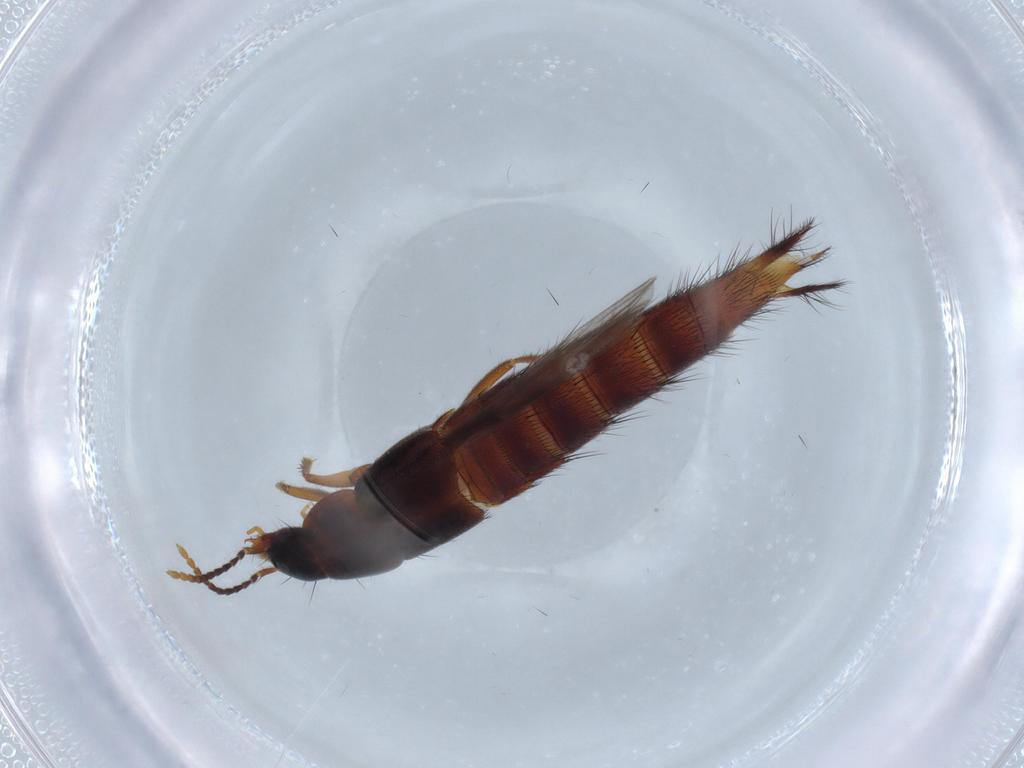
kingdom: Animalia
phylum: Arthropoda
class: Insecta
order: Coleoptera
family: Staphylinidae
